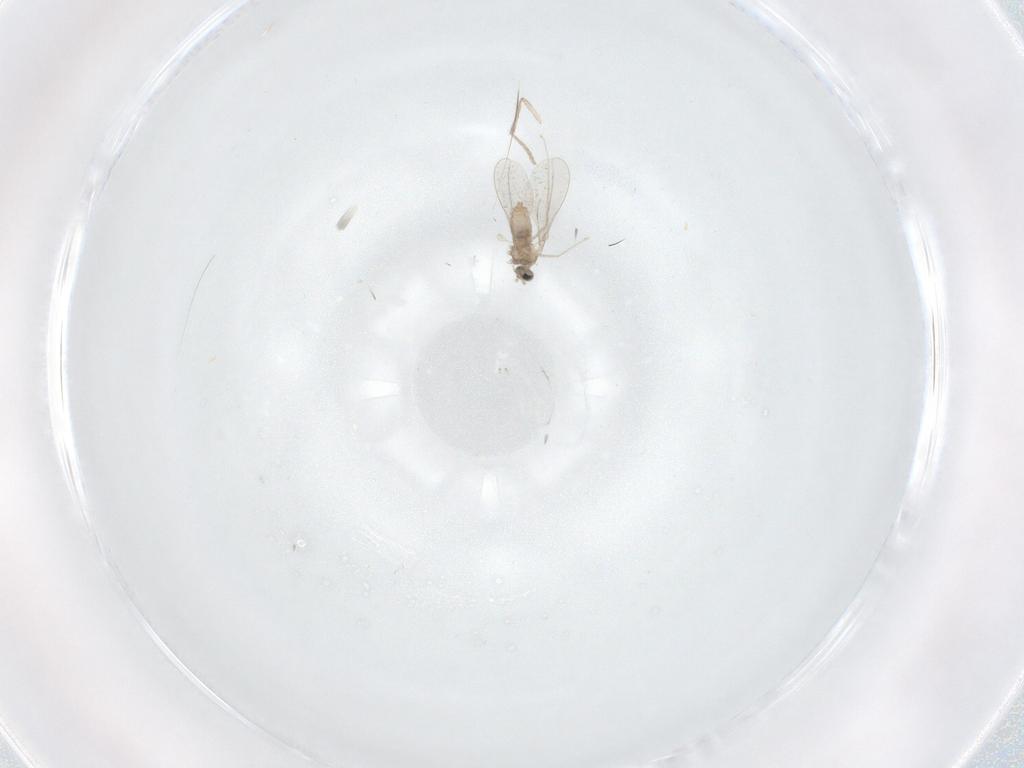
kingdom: Animalia
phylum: Arthropoda
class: Insecta
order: Diptera
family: Cecidomyiidae
